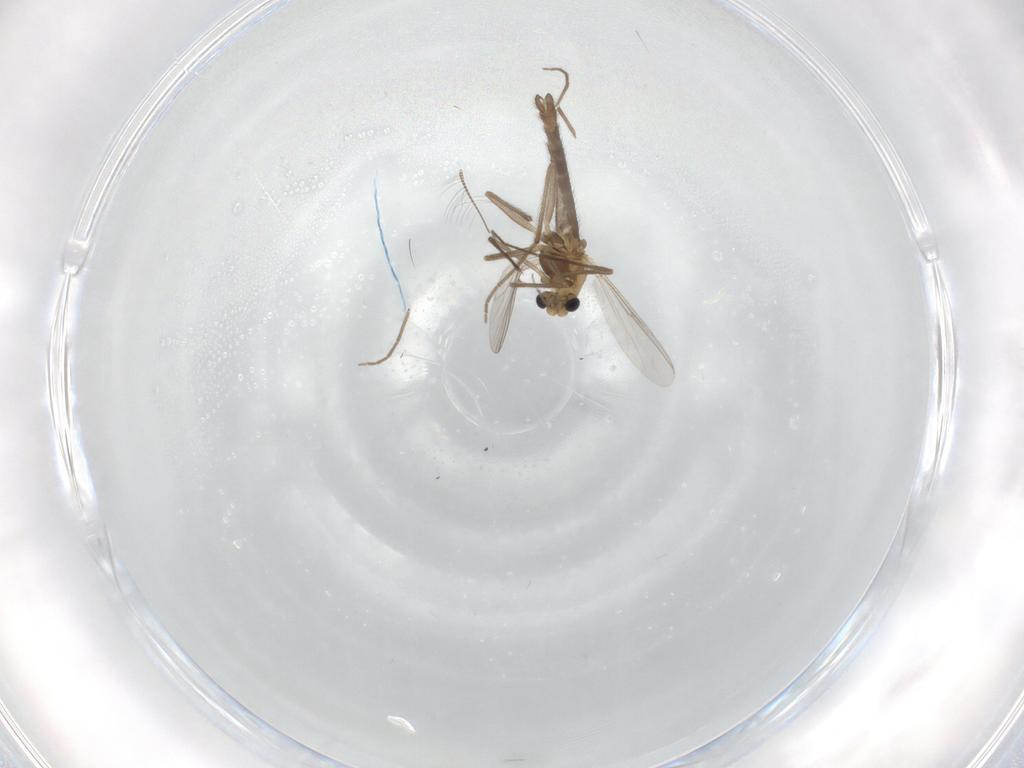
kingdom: Animalia
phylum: Arthropoda
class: Insecta
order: Diptera
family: Chironomidae
